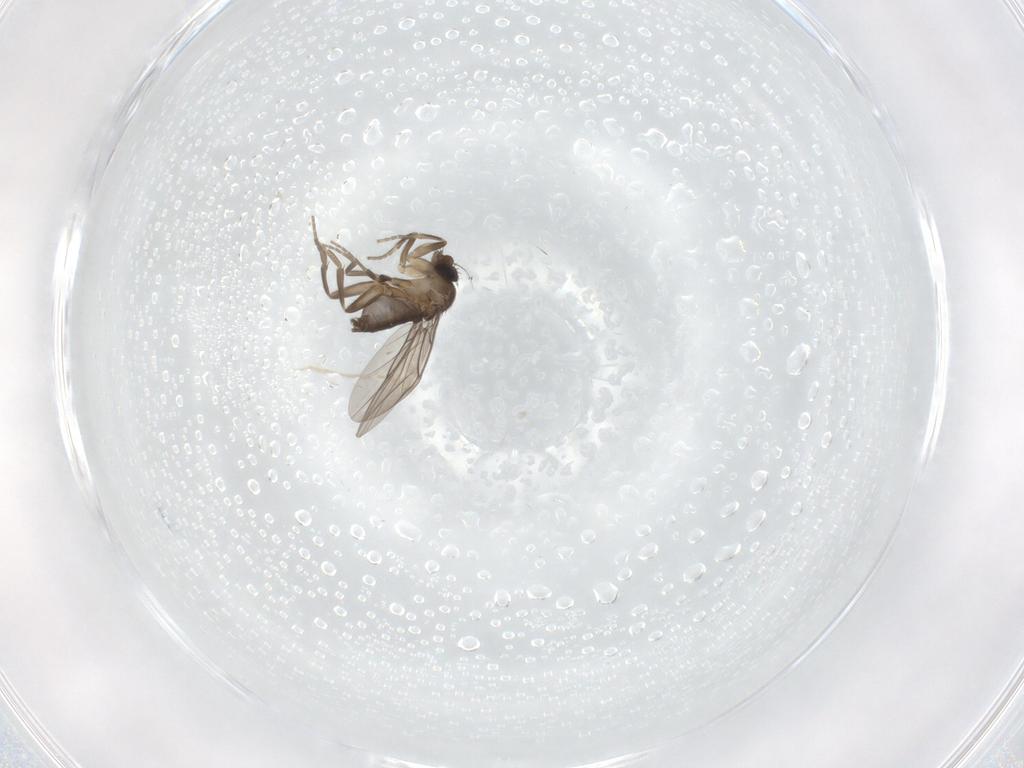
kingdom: Animalia
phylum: Arthropoda
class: Insecta
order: Diptera
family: Phoridae
